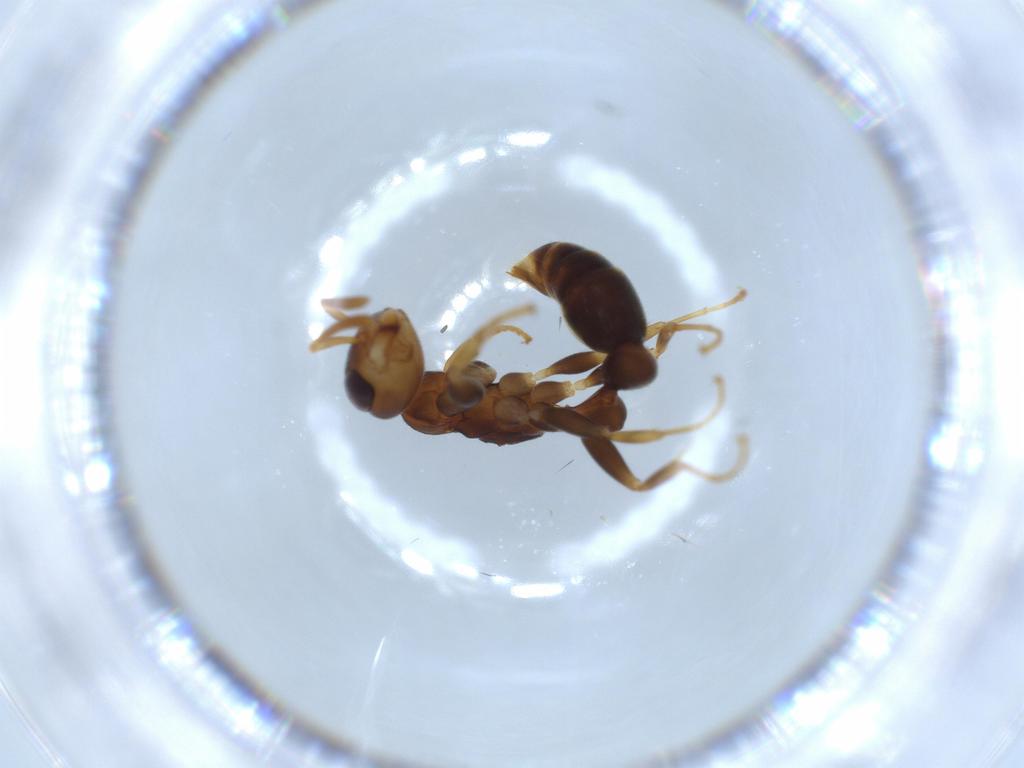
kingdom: Animalia
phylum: Arthropoda
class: Insecta
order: Hymenoptera
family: Formicidae
